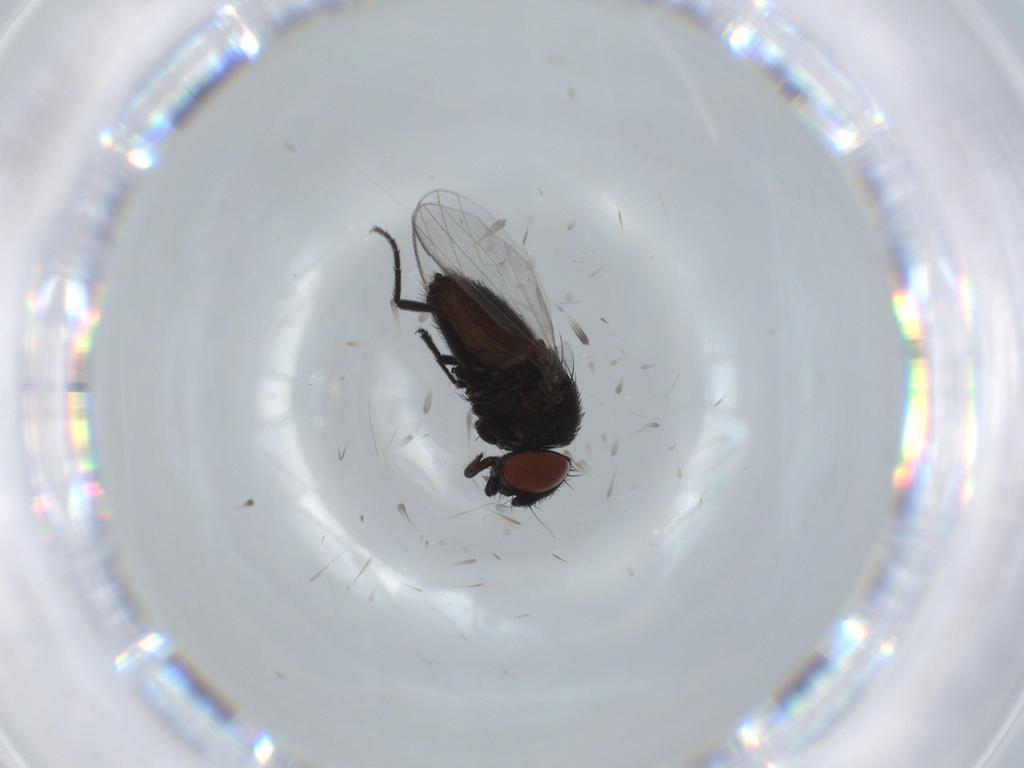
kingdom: Animalia
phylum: Arthropoda
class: Insecta
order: Diptera
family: Milichiidae
